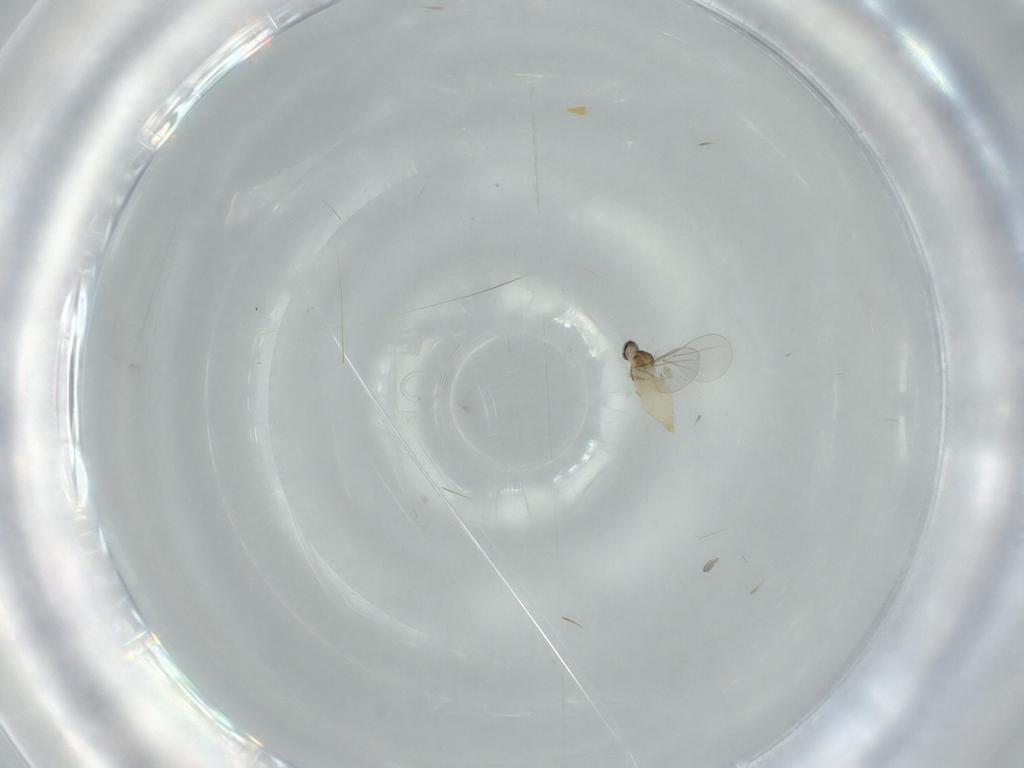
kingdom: Animalia
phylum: Arthropoda
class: Insecta
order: Diptera
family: Cecidomyiidae
